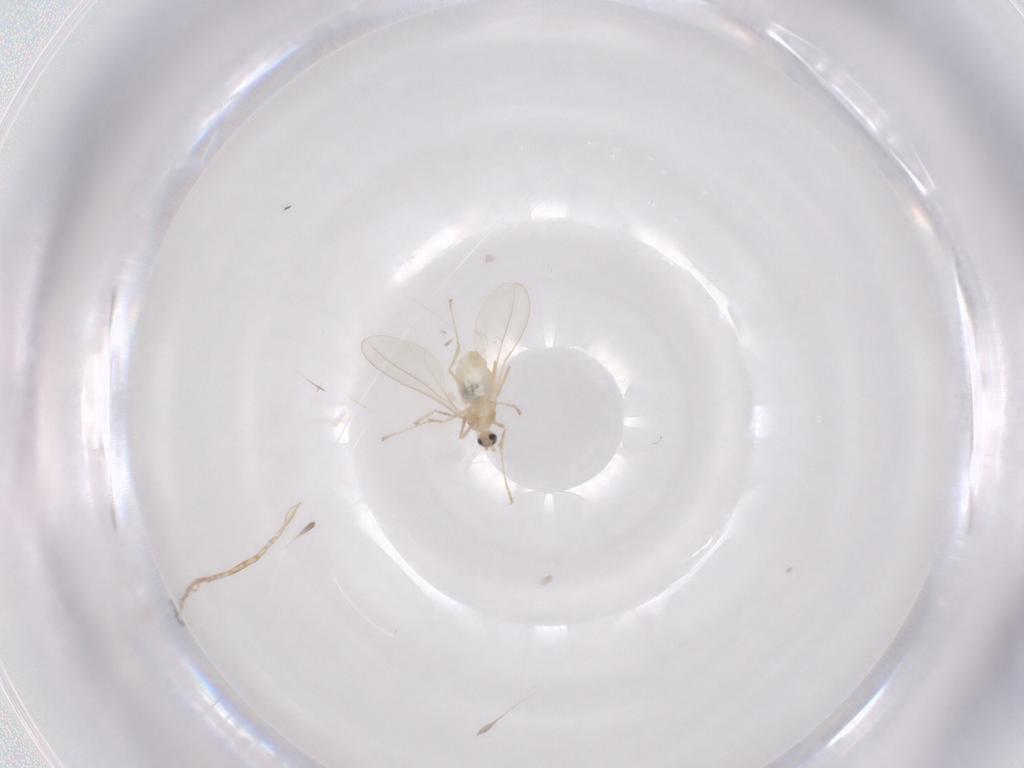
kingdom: Animalia
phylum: Arthropoda
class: Insecta
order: Diptera
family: Cecidomyiidae
